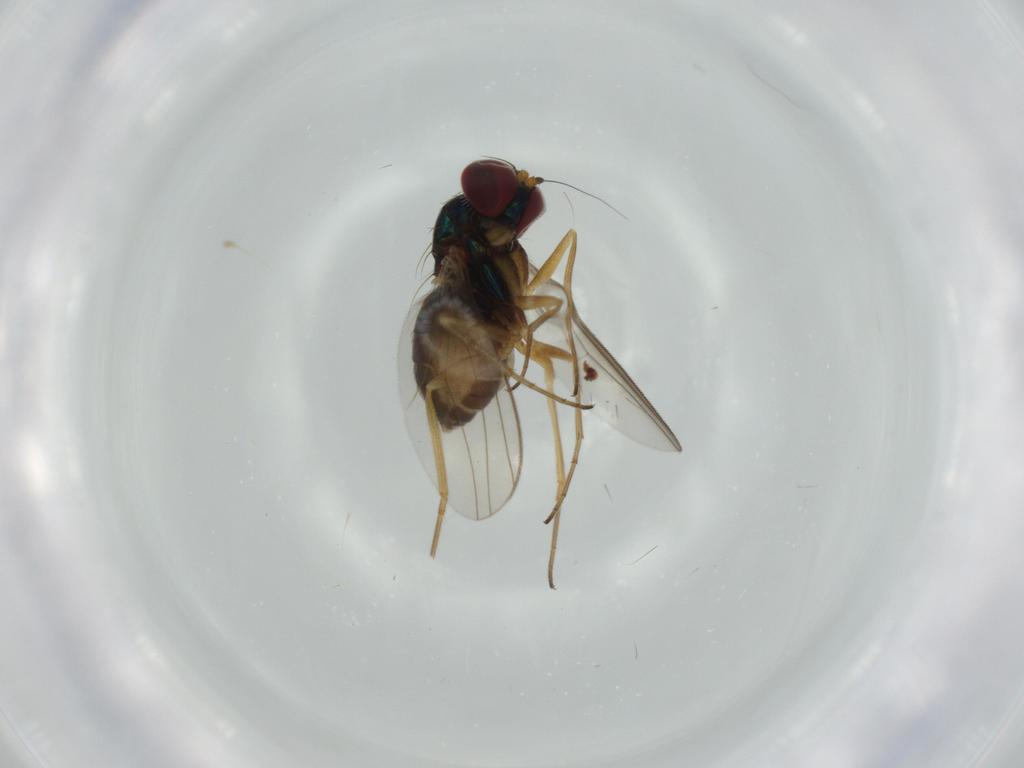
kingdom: Animalia
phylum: Arthropoda
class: Insecta
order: Diptera
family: Dolichopodidae
